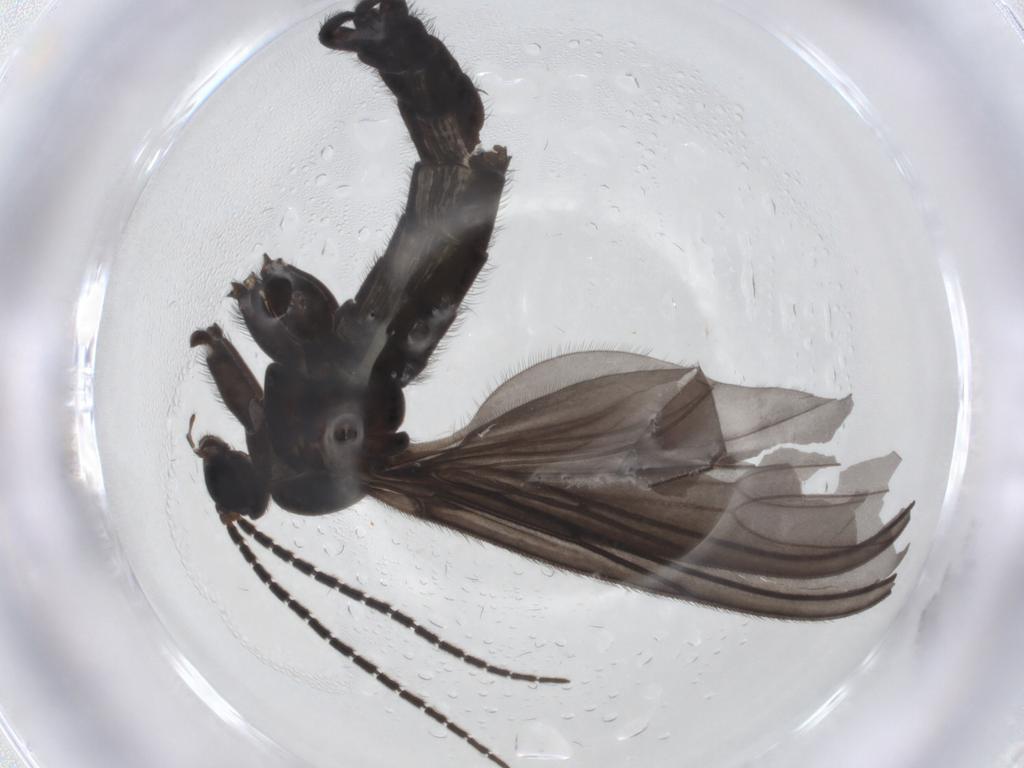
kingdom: Animalia
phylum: Arthropoda
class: Insecta
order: Diptera
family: Sciaridae
